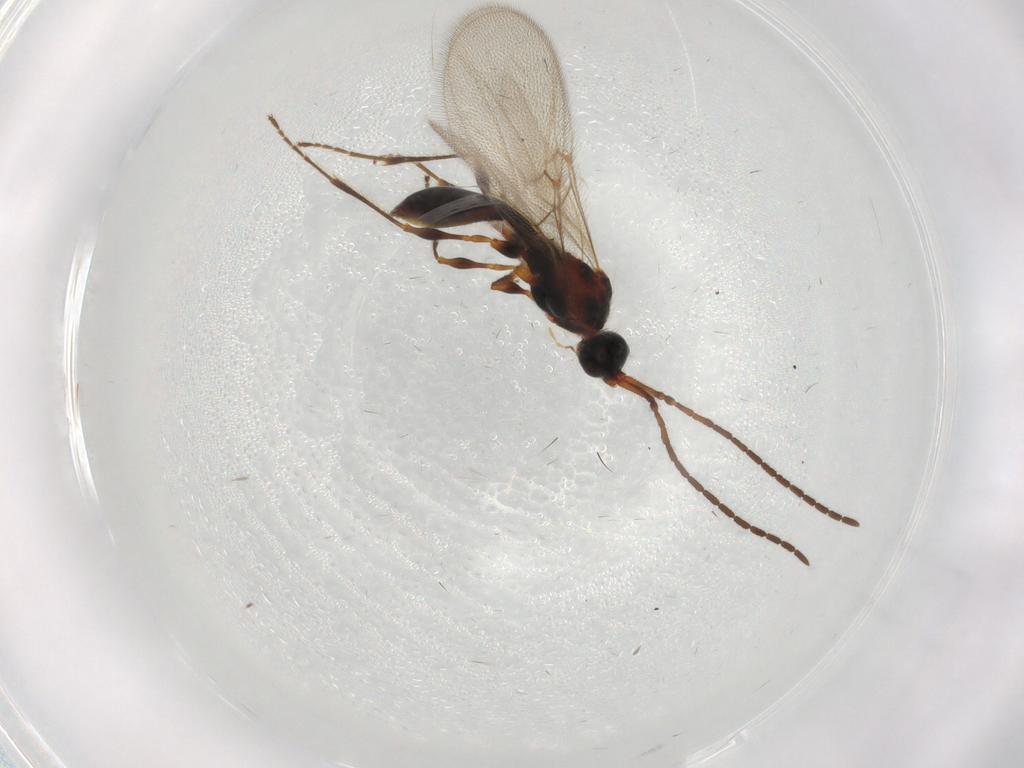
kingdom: Animalia
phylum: Arthropoda
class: Insecta
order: Hymenoptera
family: Diapriidae
